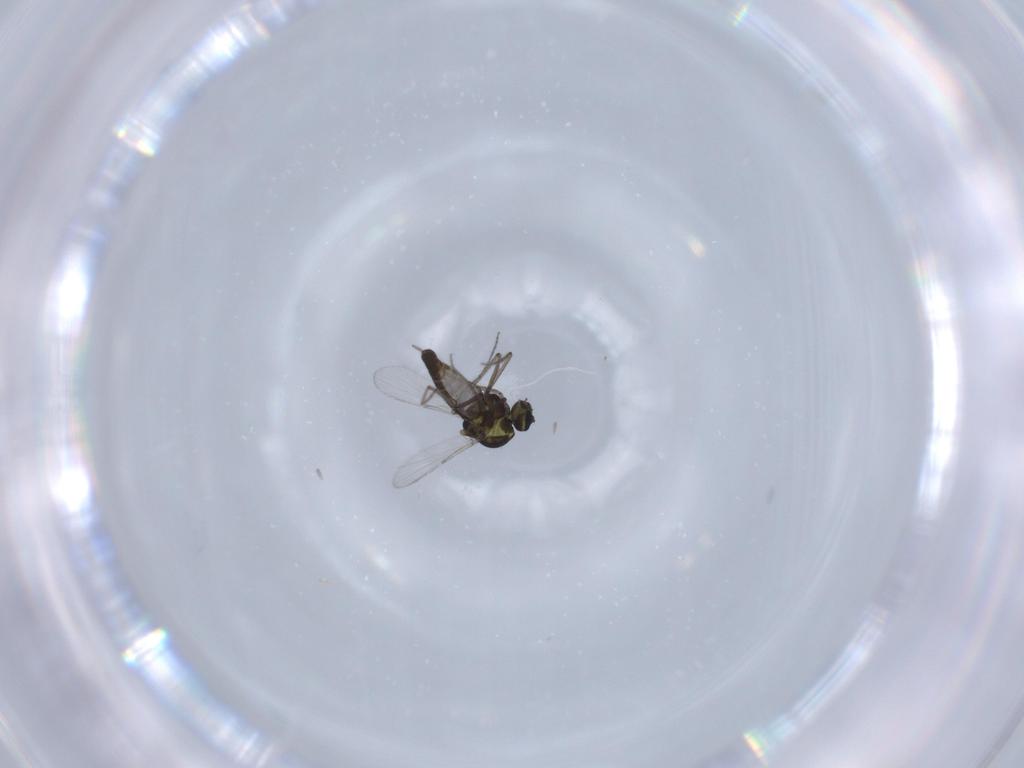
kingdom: Animalia
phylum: Arthropoda
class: Insecta
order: Diptera
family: Ceratopogonidae
